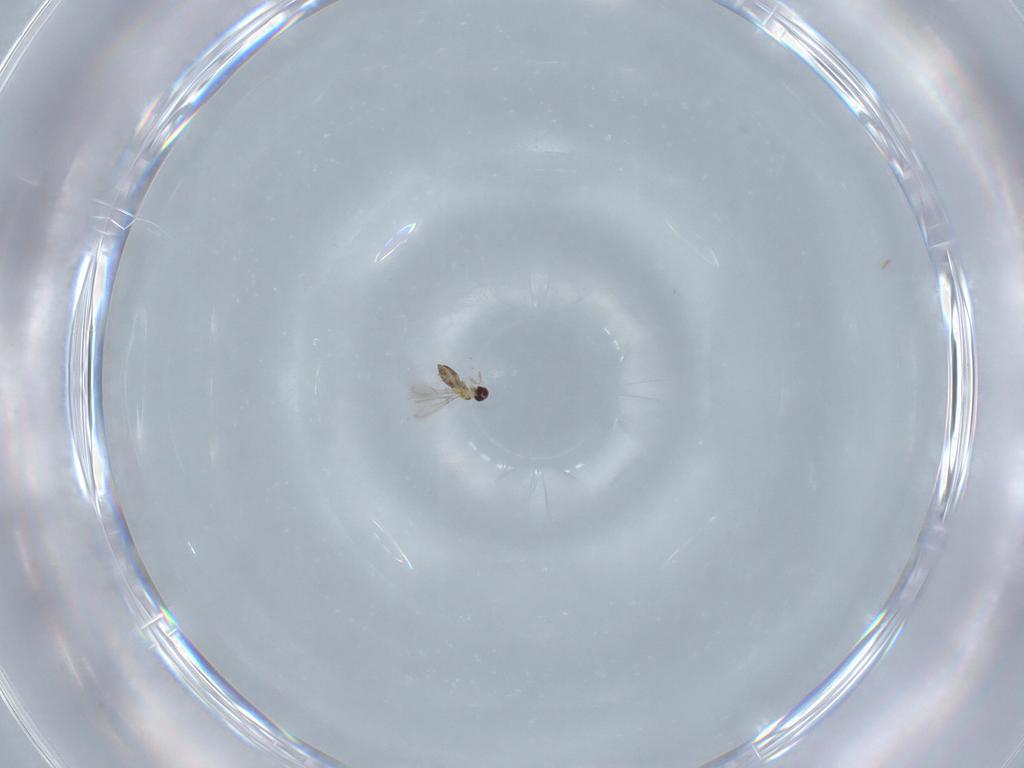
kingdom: Animalia
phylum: Arthropoda
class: Insecta
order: Hymenoptera
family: Mymaridae
